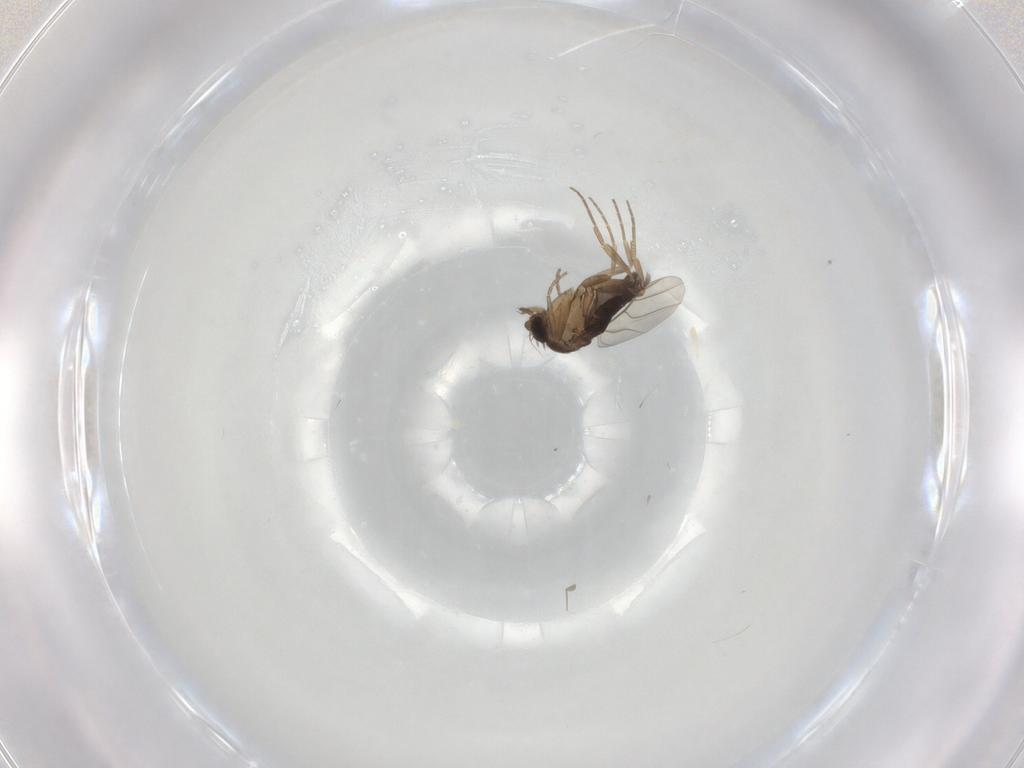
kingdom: Animalia
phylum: Arthropoda
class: Insecta
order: Diptera
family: Phoridae
